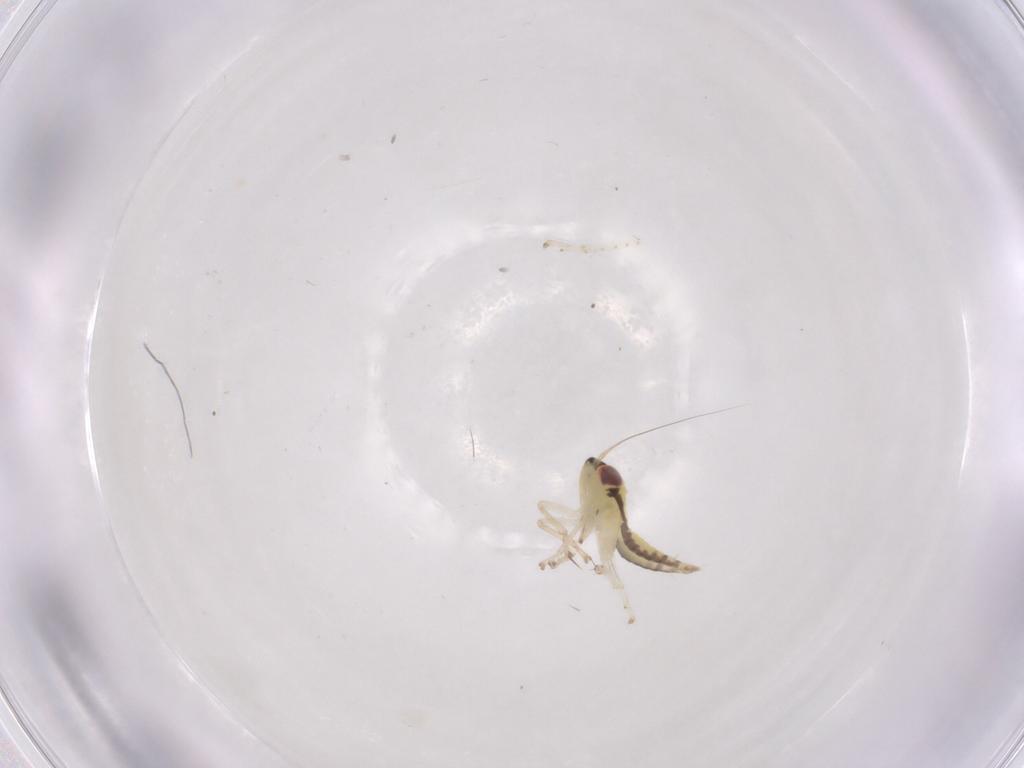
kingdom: Animalia
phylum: Arthropoda
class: Insecta
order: Hemiptera
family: Cicadellidae
